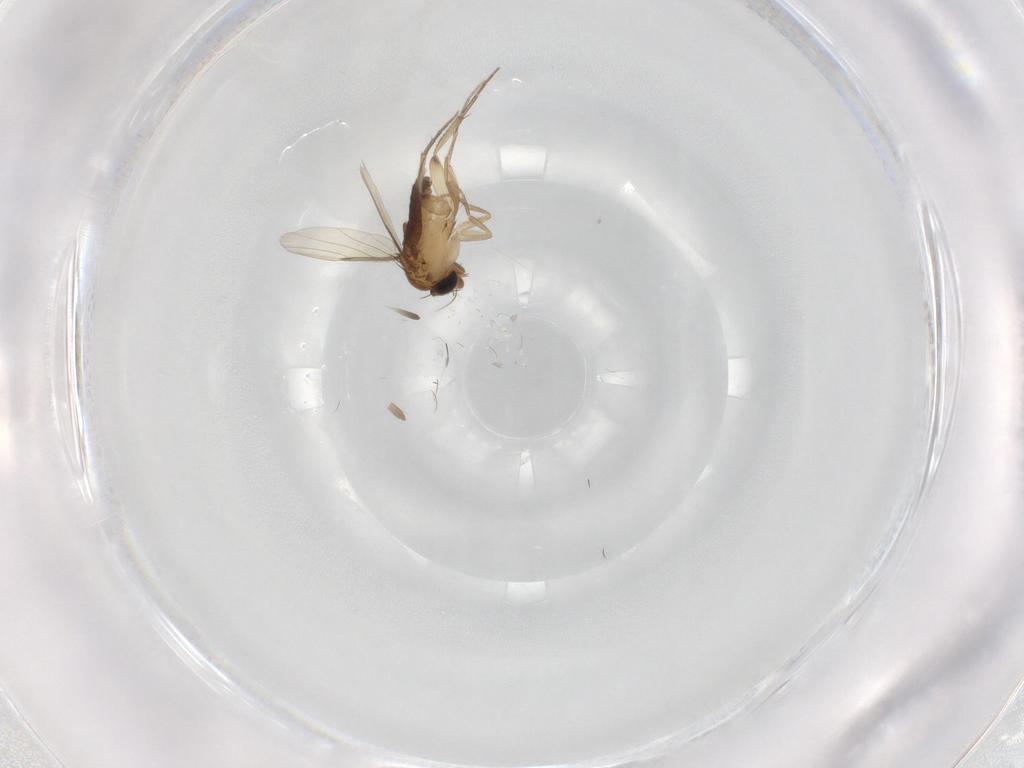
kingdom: Animalia
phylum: Arthropoda
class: Insecta
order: Diptera
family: Phoridae
